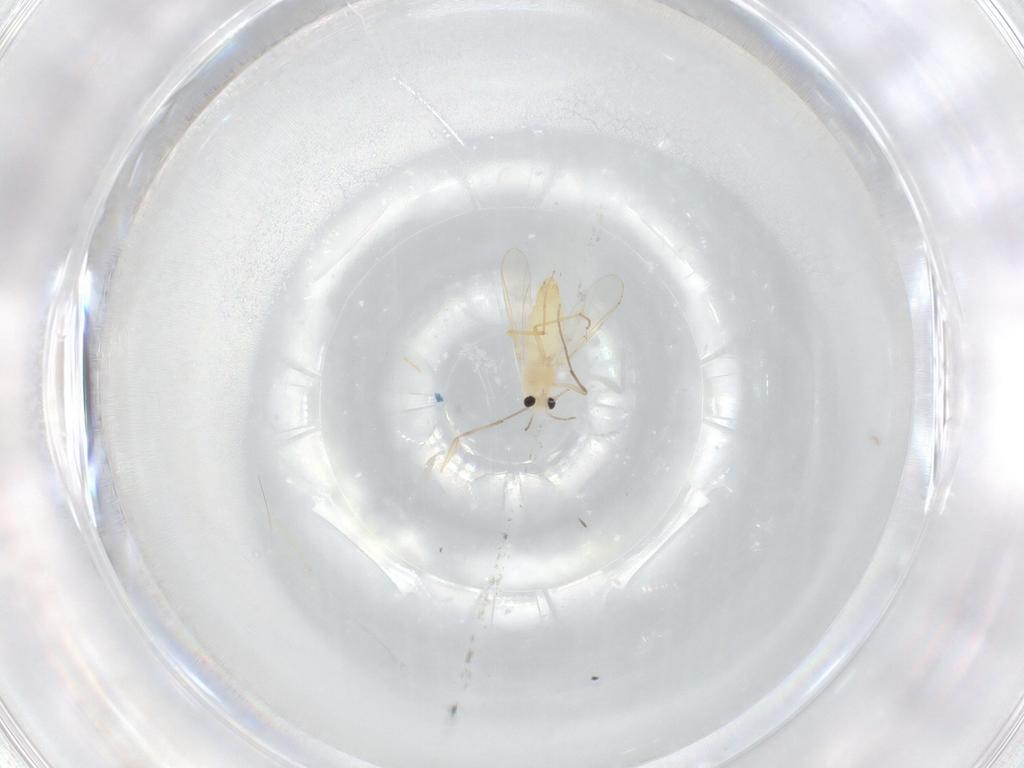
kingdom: Animalia
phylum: Arthropoda
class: Insecta
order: Diptera
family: Chironomidae
